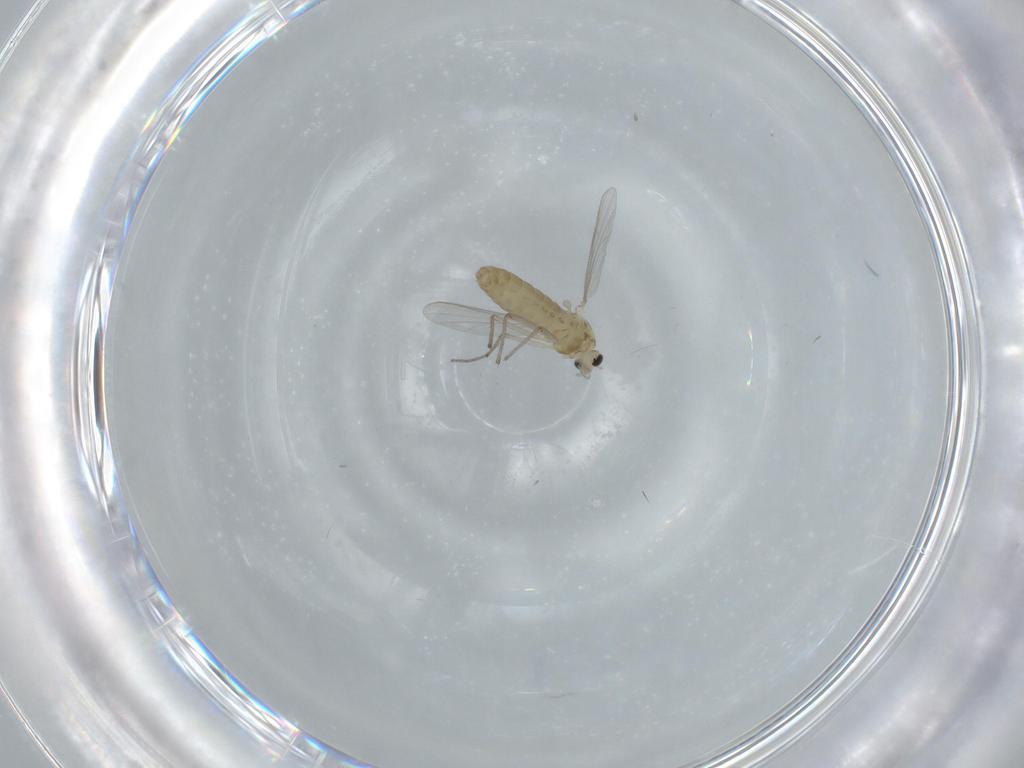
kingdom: Animalia
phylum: Arthropoda
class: Insecta
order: Diptera
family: Chironomidae
